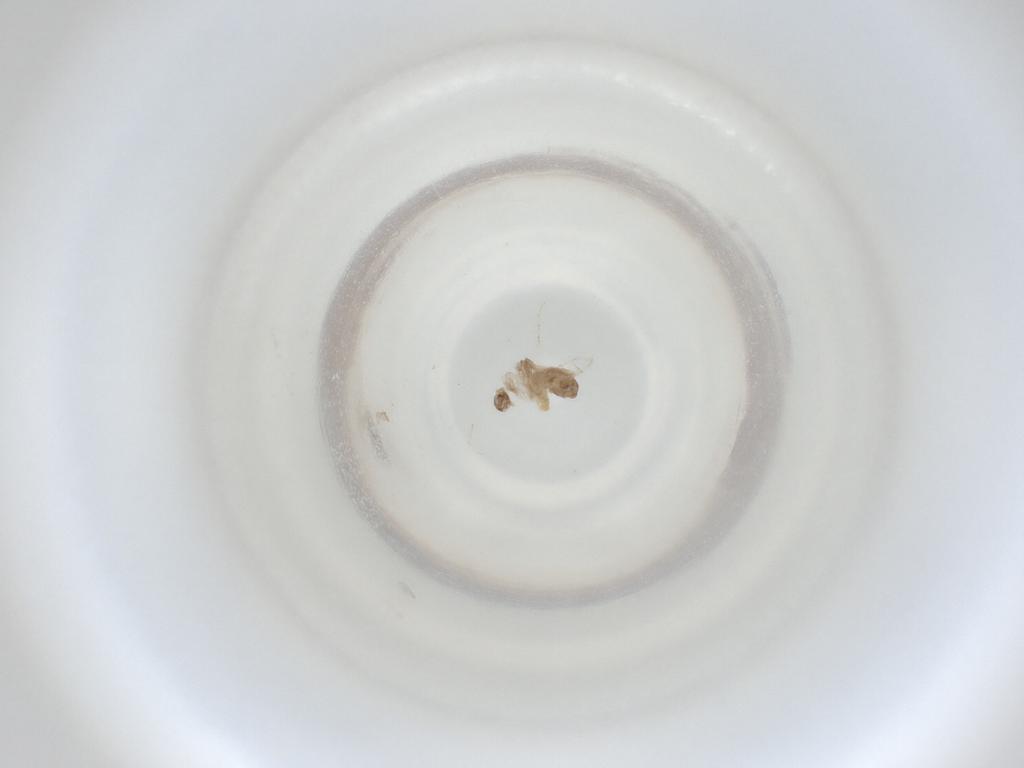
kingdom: Animalia
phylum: Arthropoda
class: Insecta
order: Diptera
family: Cecidomyiidae
